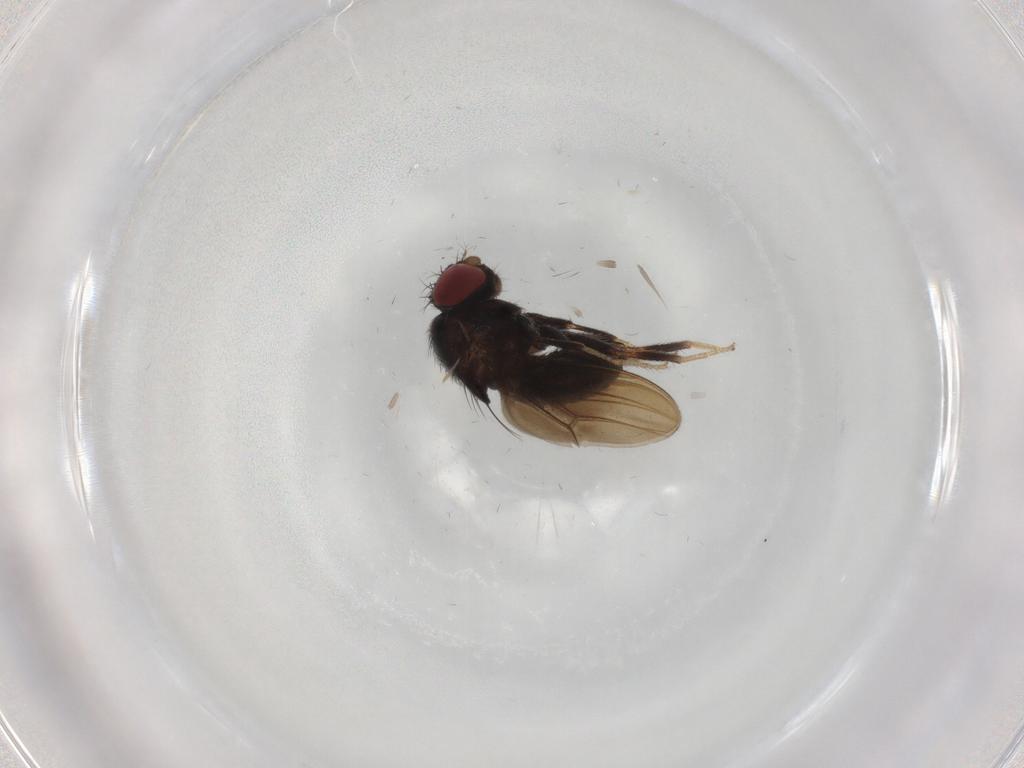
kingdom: Animalia
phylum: Arthropoda
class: Insecta
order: Diptera
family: Drosophilidae
